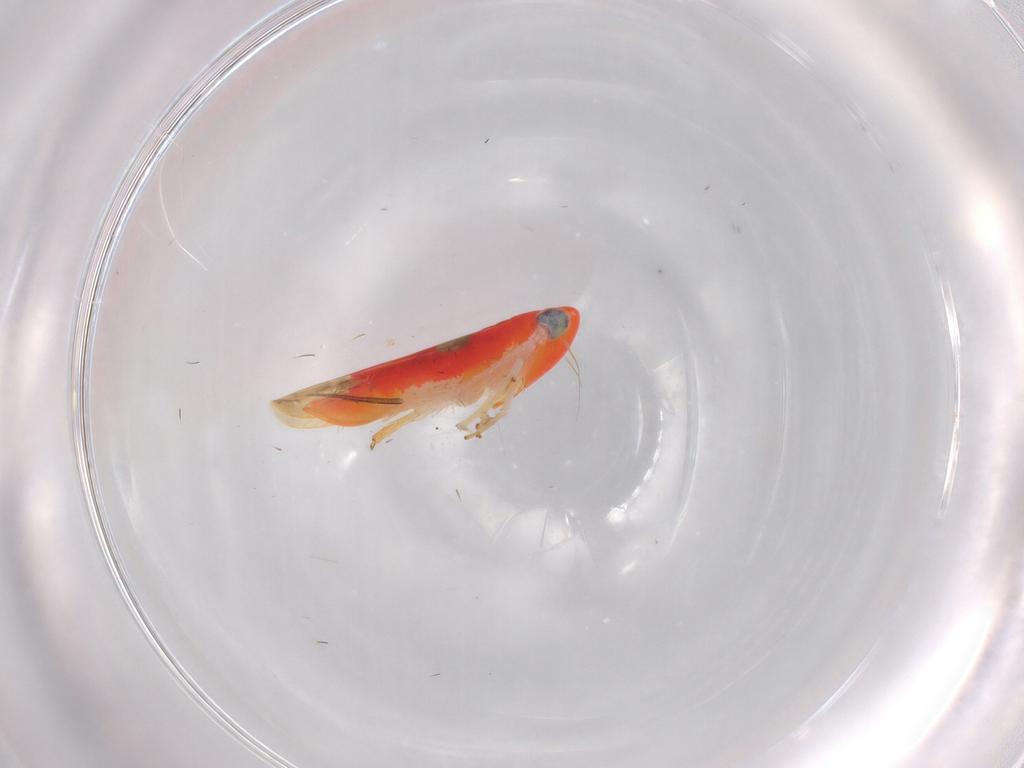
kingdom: Animalia
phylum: Arthropoda
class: Insecta
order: Hemiptera
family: Cicadellidae
